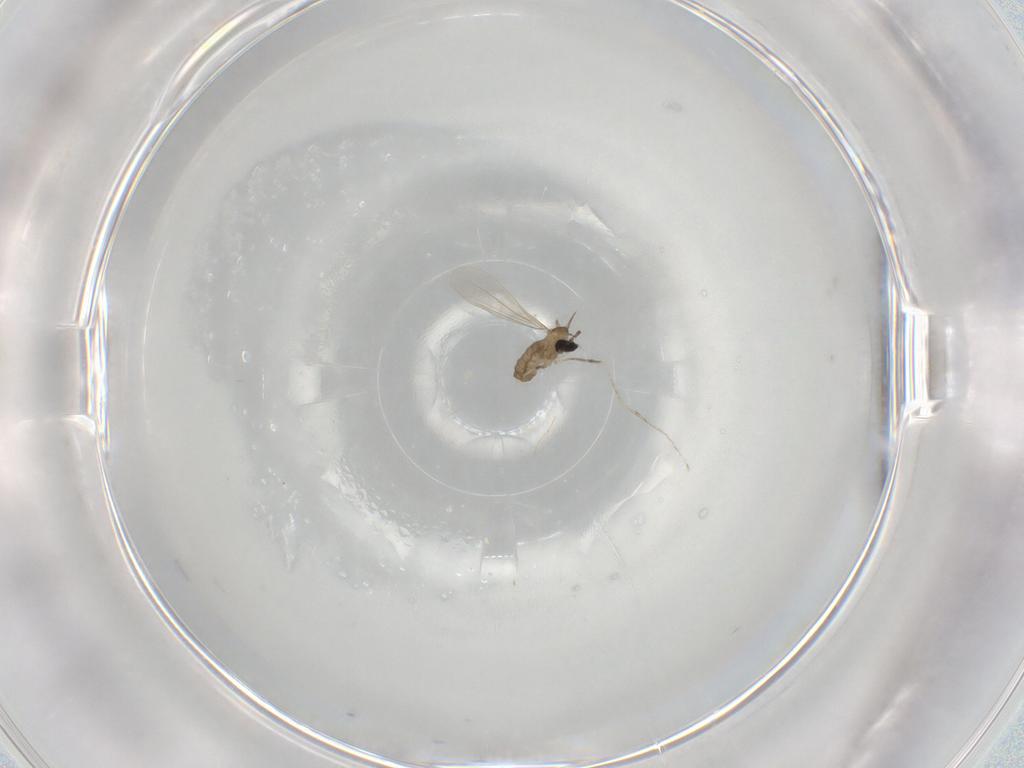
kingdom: Animalia
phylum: Arthropoda
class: Insecta
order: Diptera
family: Cecidomyiidae
